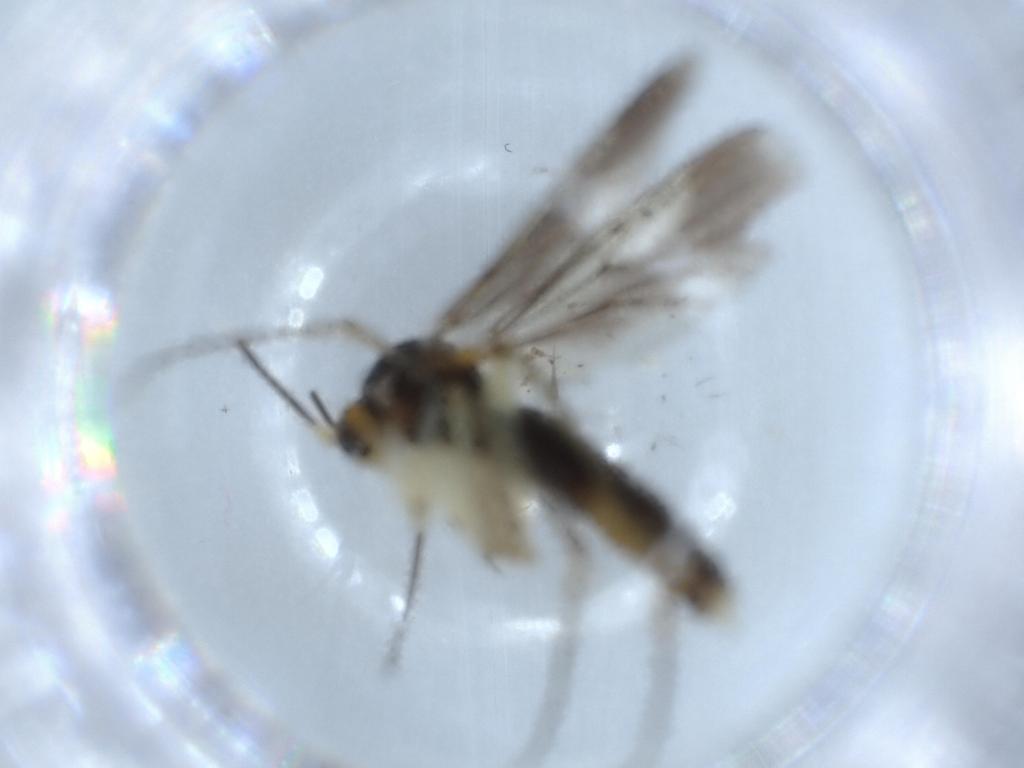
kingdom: Animalia
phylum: Arthropoda
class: Insecta
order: Diptera
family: Mycetophilidae
